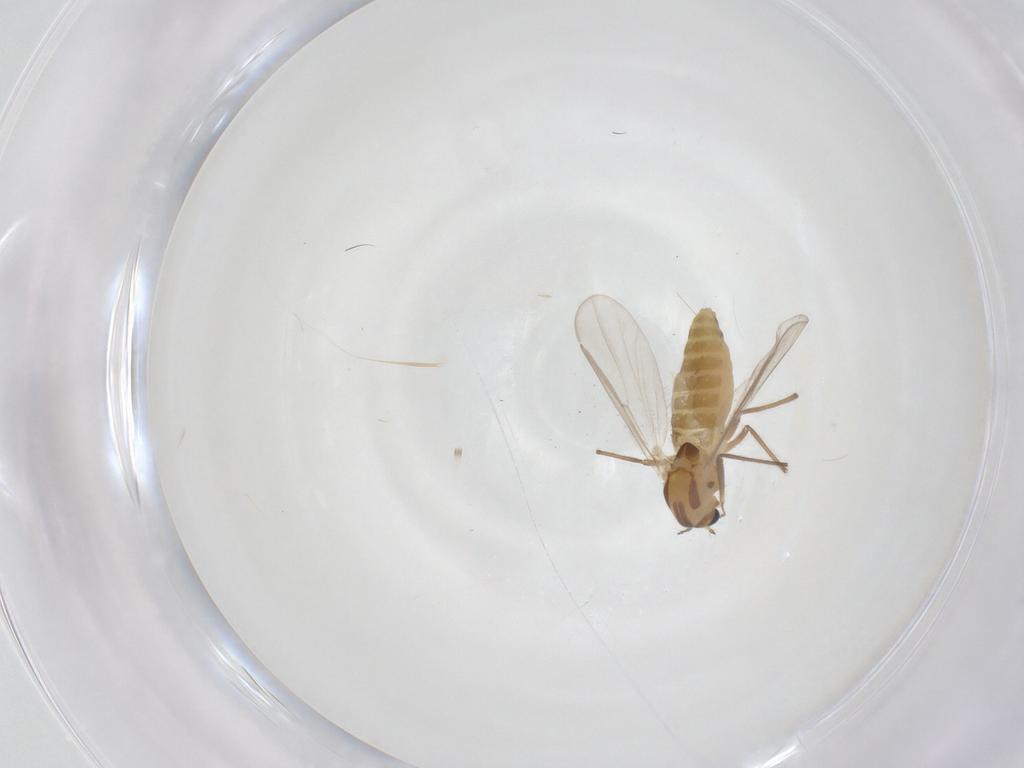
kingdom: Animalia
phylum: Arthropoda
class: Insecta
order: Diptera
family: Chironomidae
